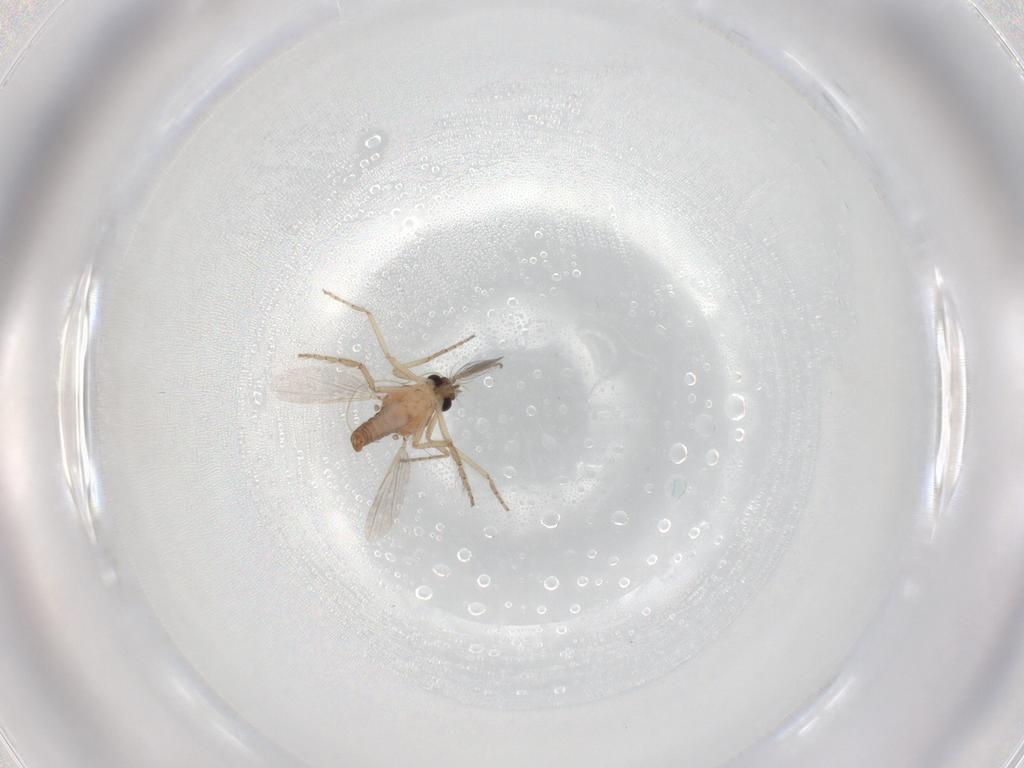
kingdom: Animalia
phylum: Arthropoda
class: Insecta
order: Diptera
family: Ceratopogonidae
